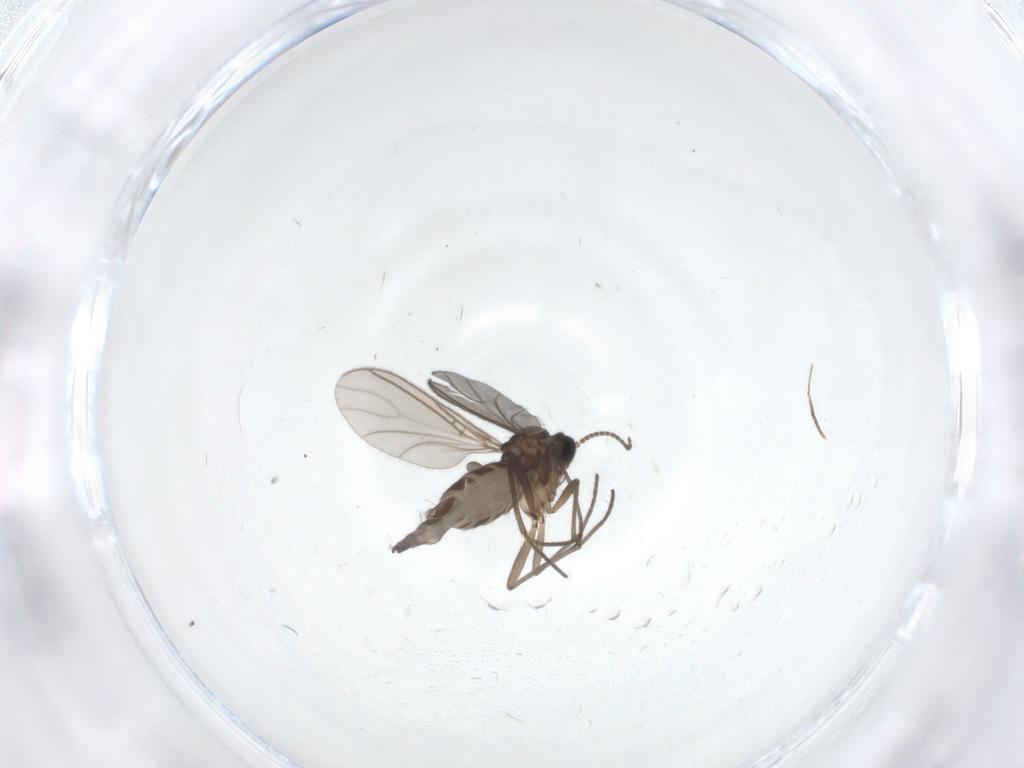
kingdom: Animalia
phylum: Arthropoda
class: Insecta
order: Diptera
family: Sciaridae
